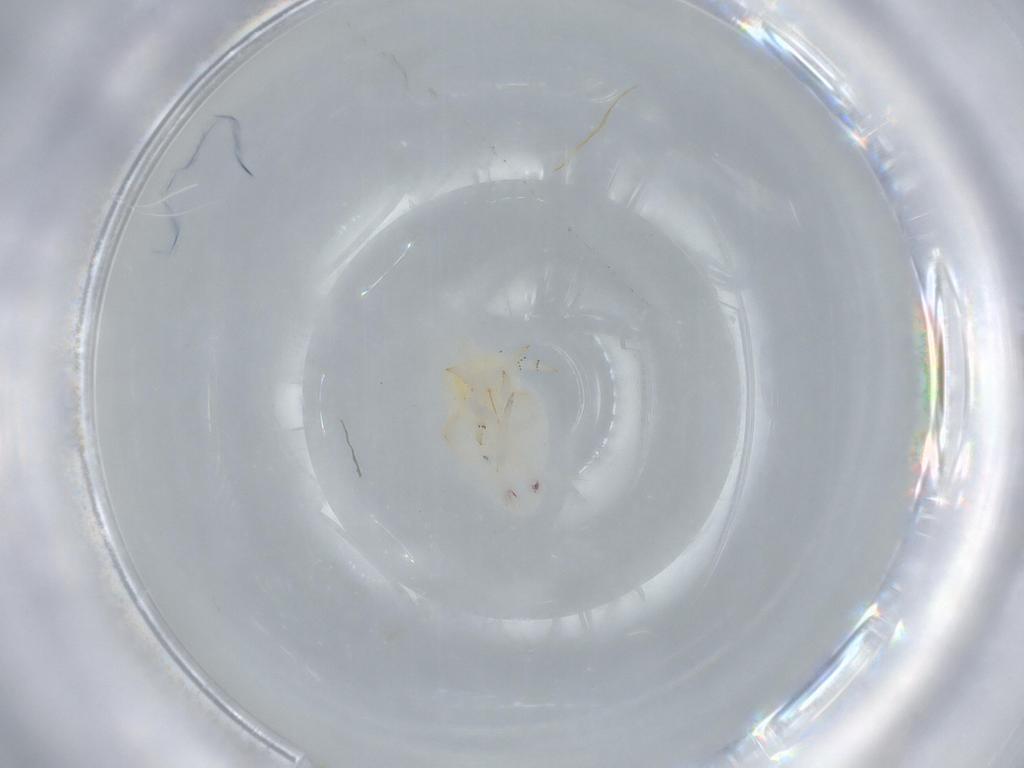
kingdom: Animalia
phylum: Arthropoda
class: Insecta
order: Hemiptera
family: Flatidae
